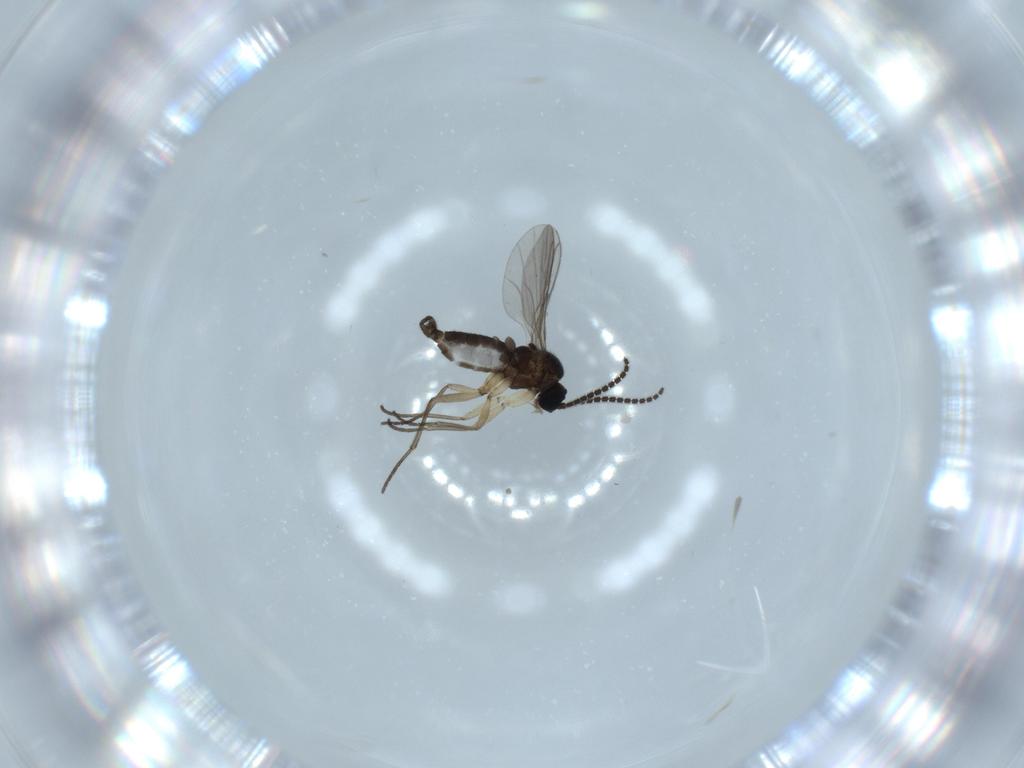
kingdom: Animalia
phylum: Arthropoda
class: Insecta
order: Diptera
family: Sciaridae
